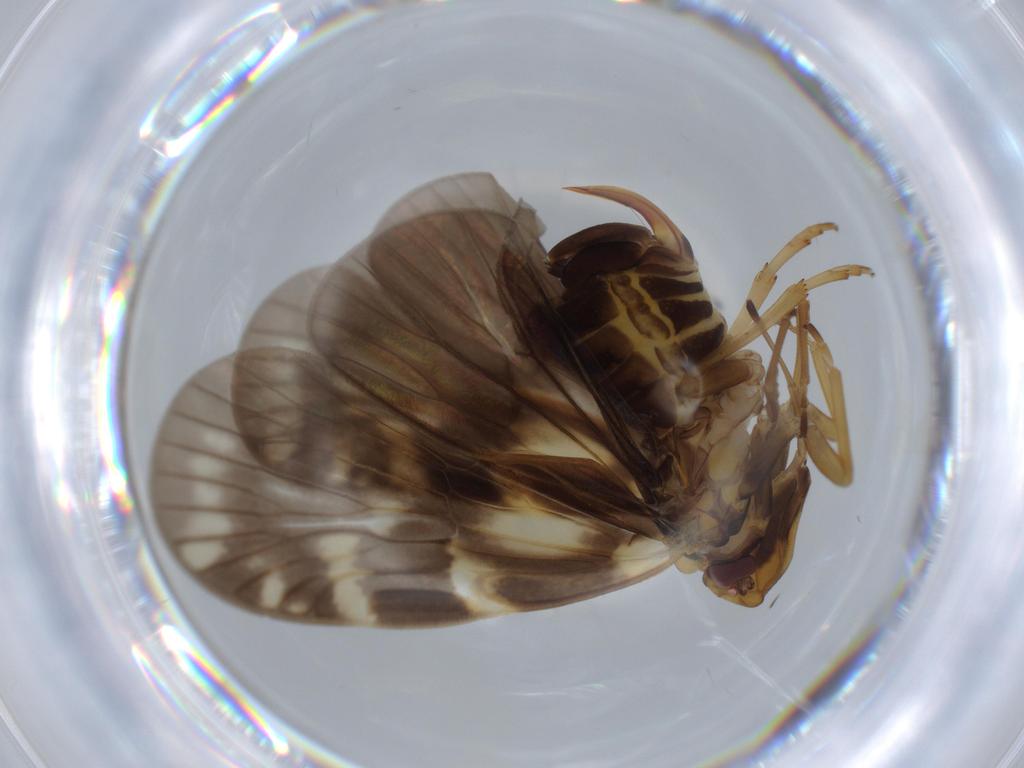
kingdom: Animalia
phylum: Arthropoda
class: Insecta
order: Hemiptera
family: Cixiidae
